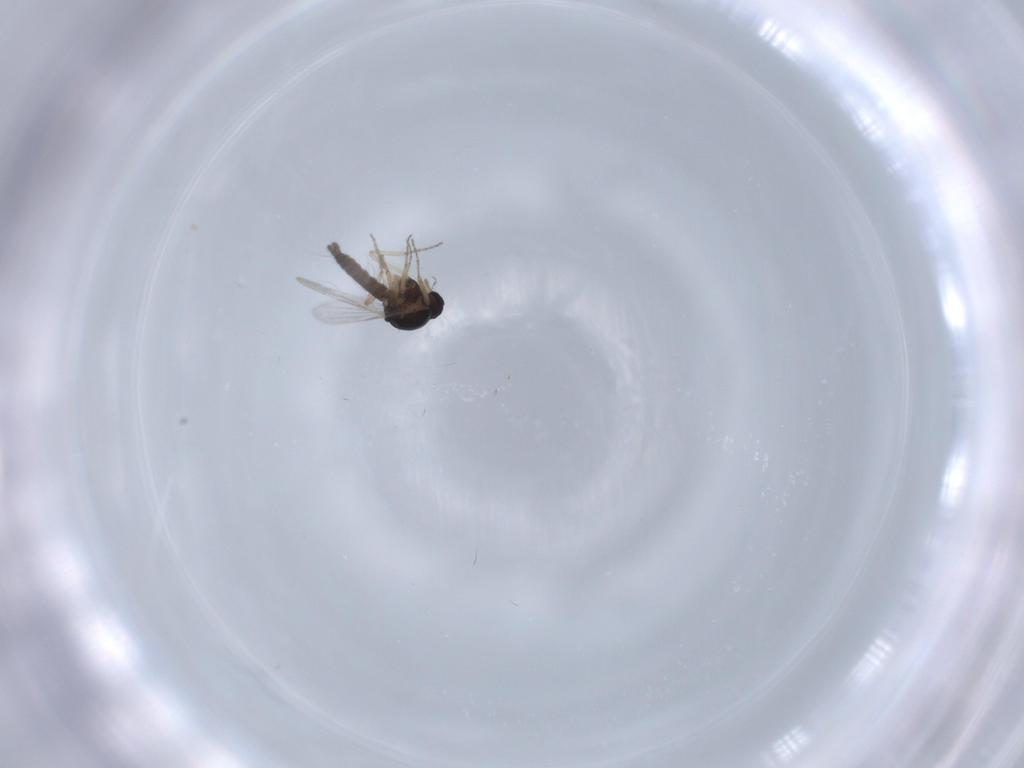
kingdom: Animalia
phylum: Arthropoda
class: Insecta
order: Diptera
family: Ceratopogonidae
